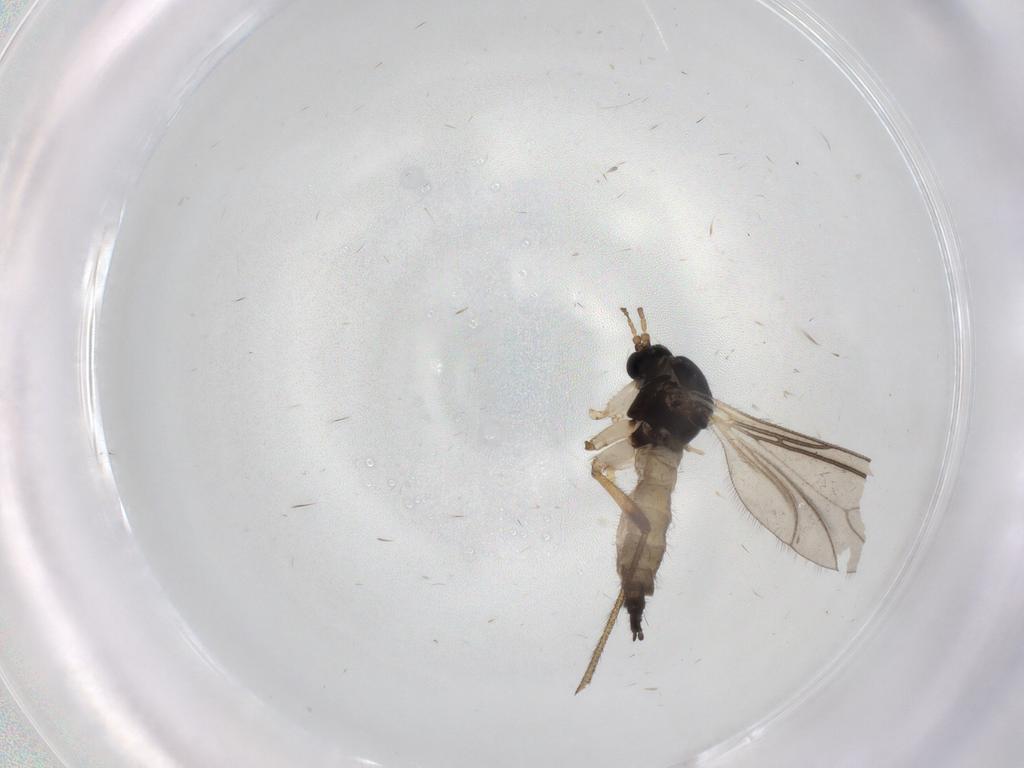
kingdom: Animalia
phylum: Arthropoda
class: Insecta
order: Diptera
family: Sciaridae
